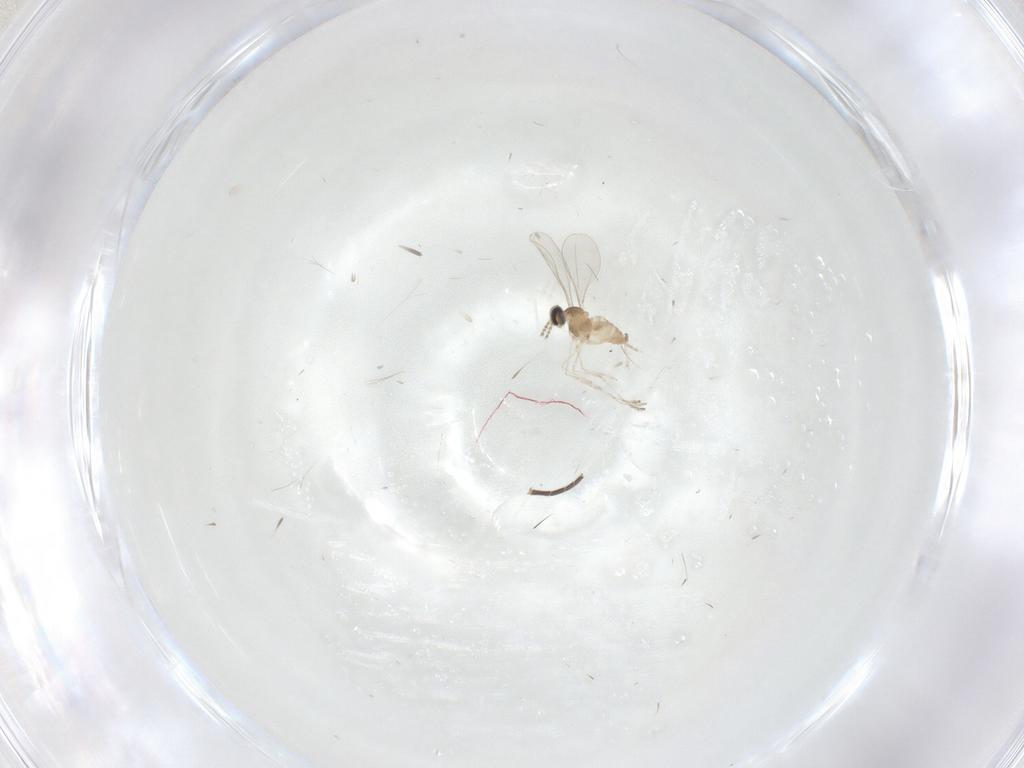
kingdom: Animalia
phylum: Arthropoda
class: Insecta
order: Diptera
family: Sciaridae
